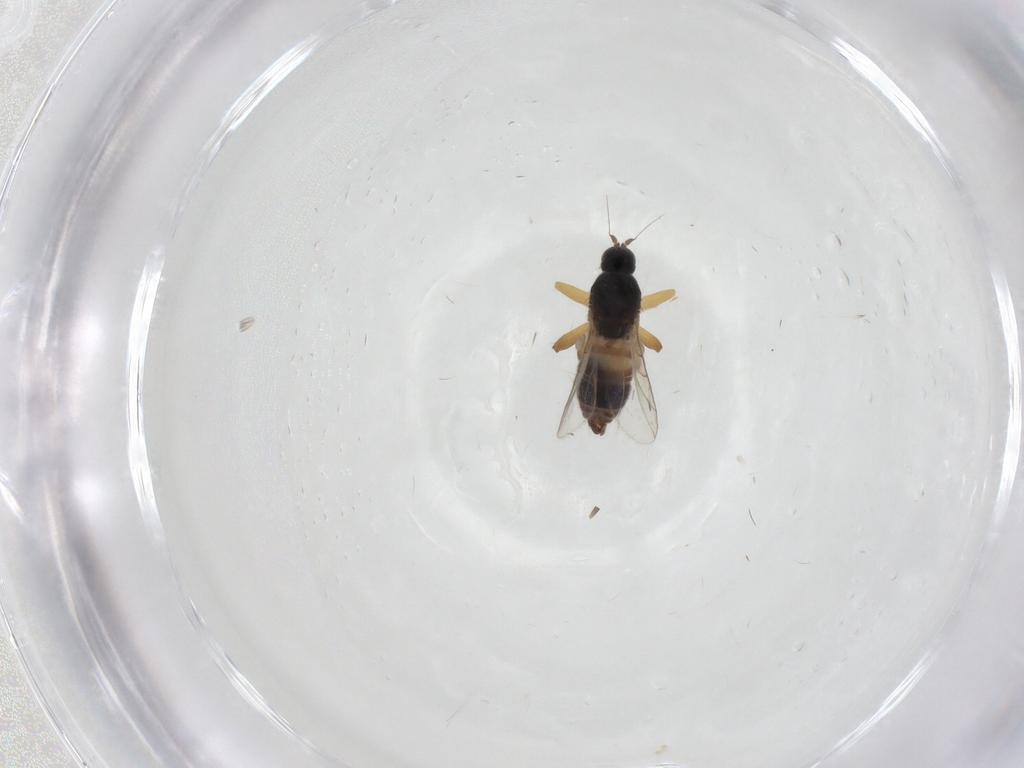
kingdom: Animalia
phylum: Arthropoda
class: Insecta
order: Diptera
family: Hybotidae
